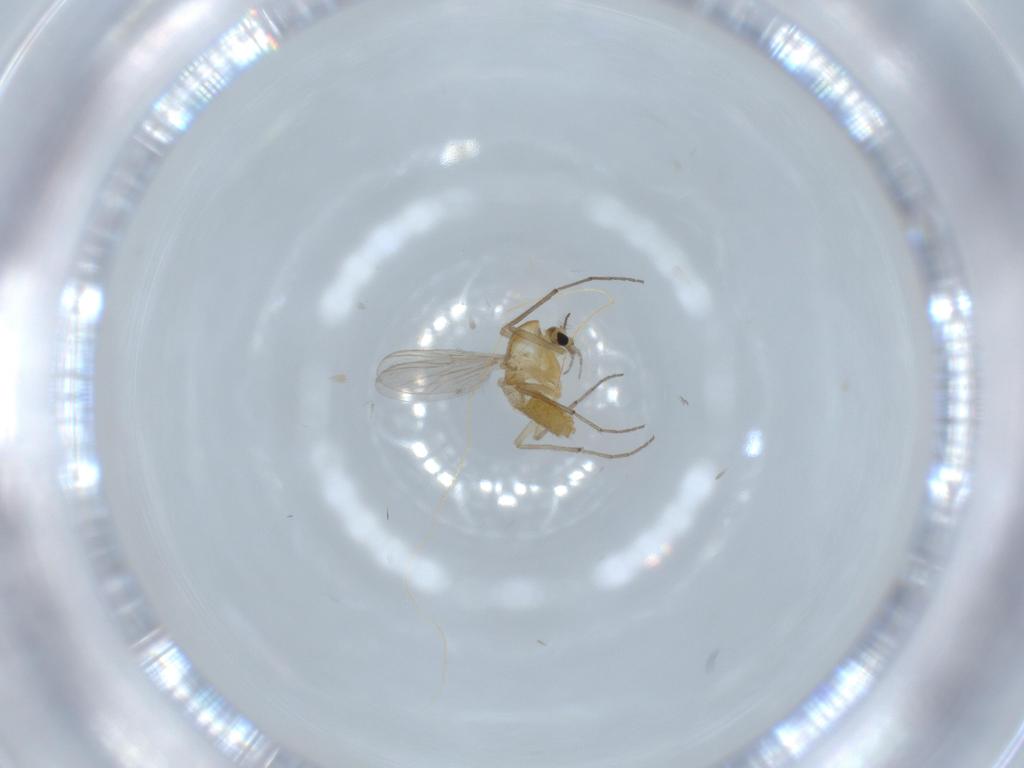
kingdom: Animalia
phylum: Arthropoda
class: Insecta
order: Diptera
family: Chironomidae
